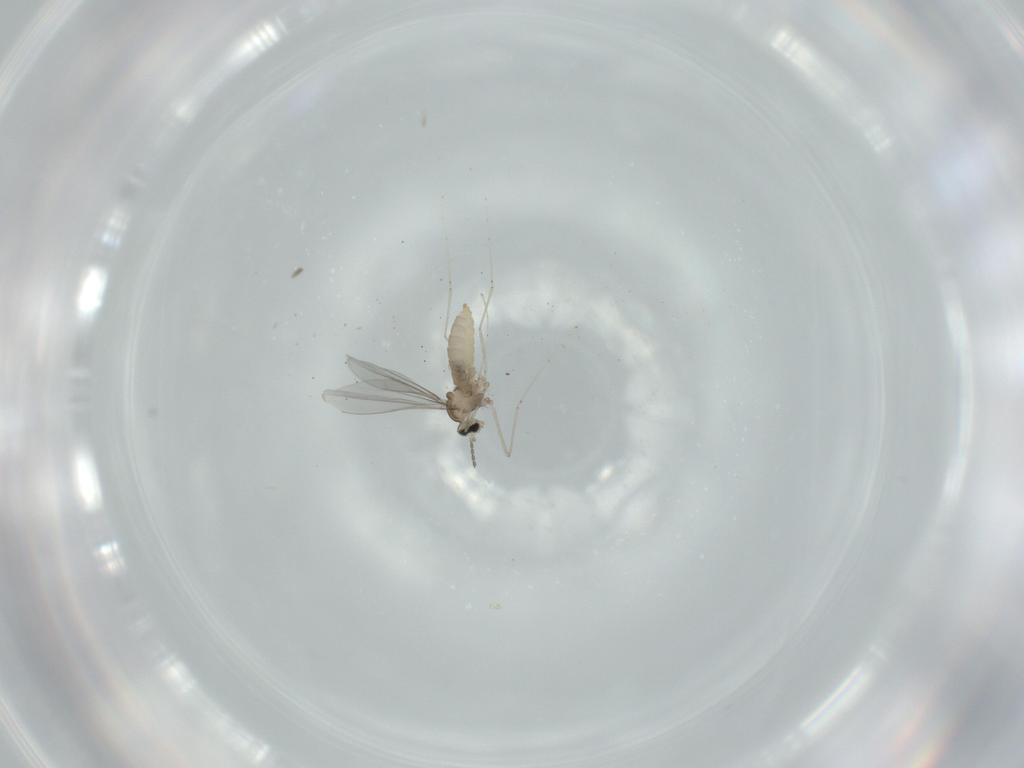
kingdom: Animalia
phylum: Arthropoda
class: Insecta
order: Diptera
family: Cecidomyiidae
